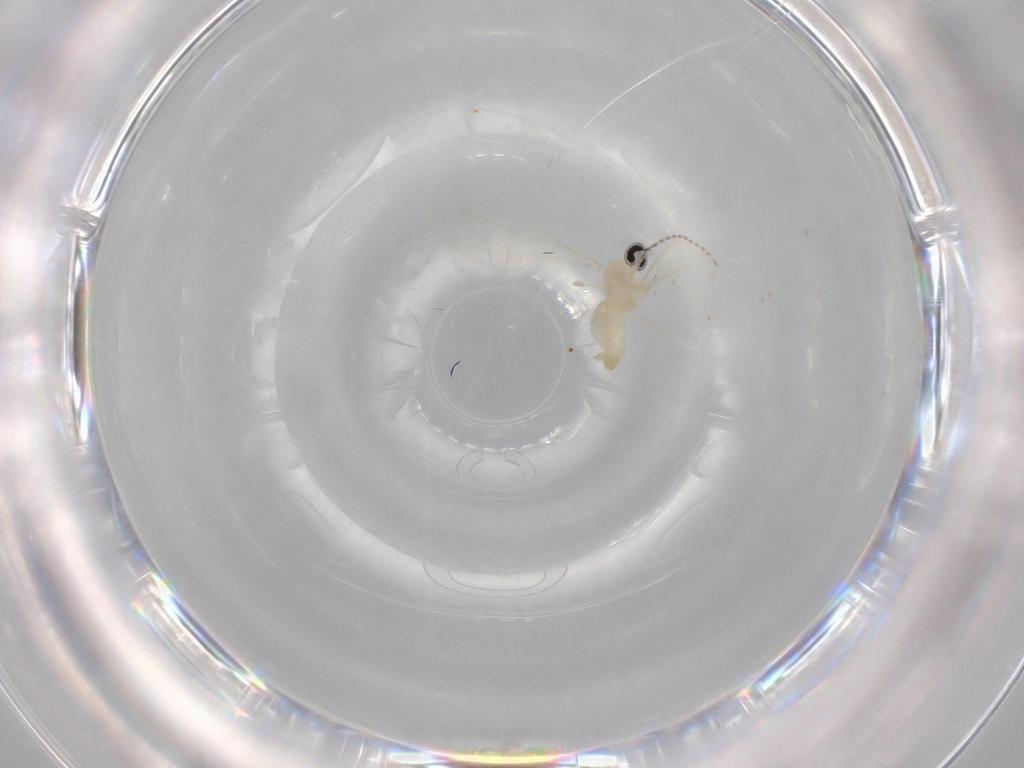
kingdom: Animalia
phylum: Arthropoda
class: Insecta
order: Diptera
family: Cecidomyiidae
